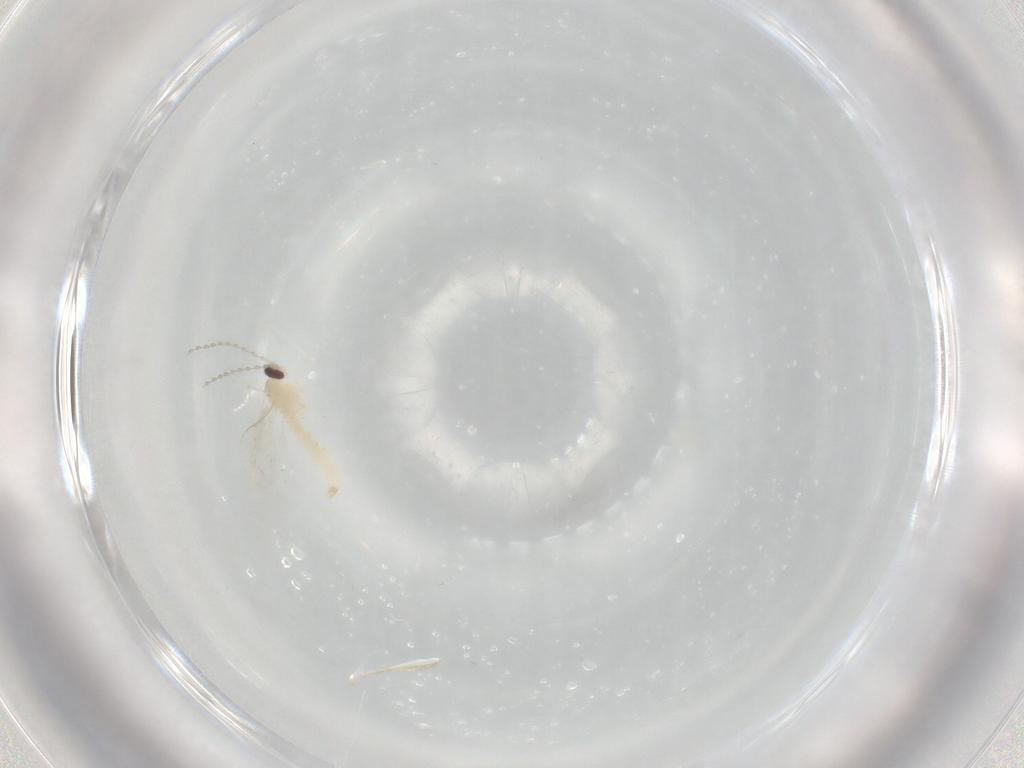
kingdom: Animalia
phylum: Arthropoda
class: Insecta
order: Diptera
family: Cecidomyiidae
